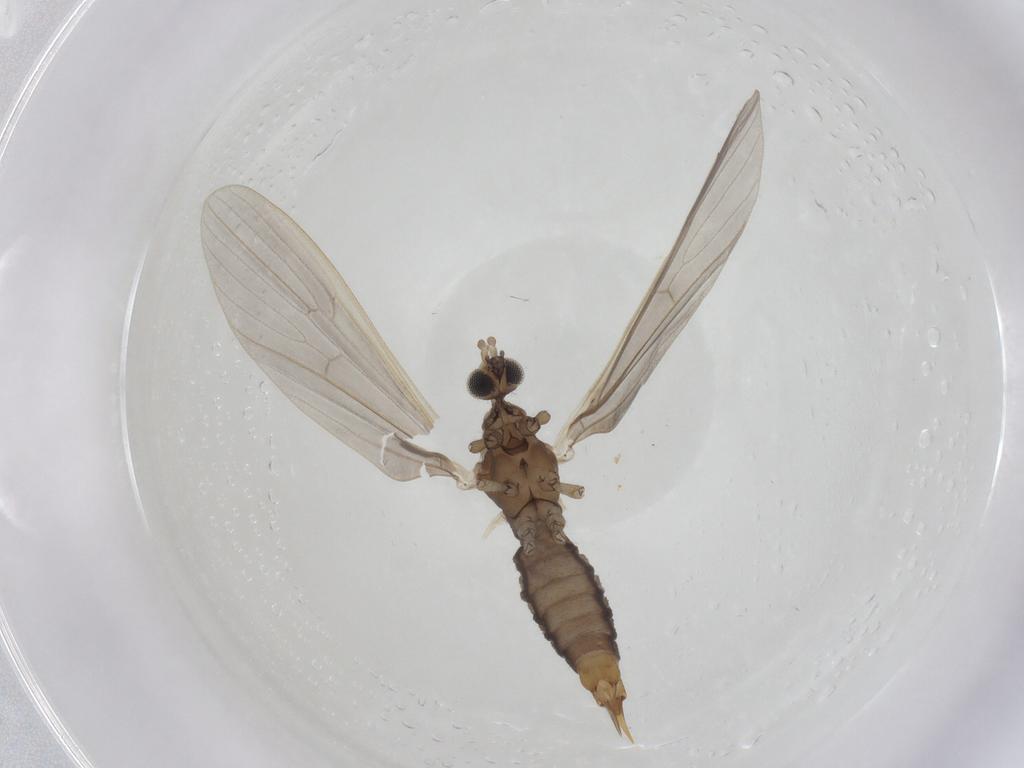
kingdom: Animalia
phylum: Arthropoda
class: Insecta
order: Diptera
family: Limoniidae
